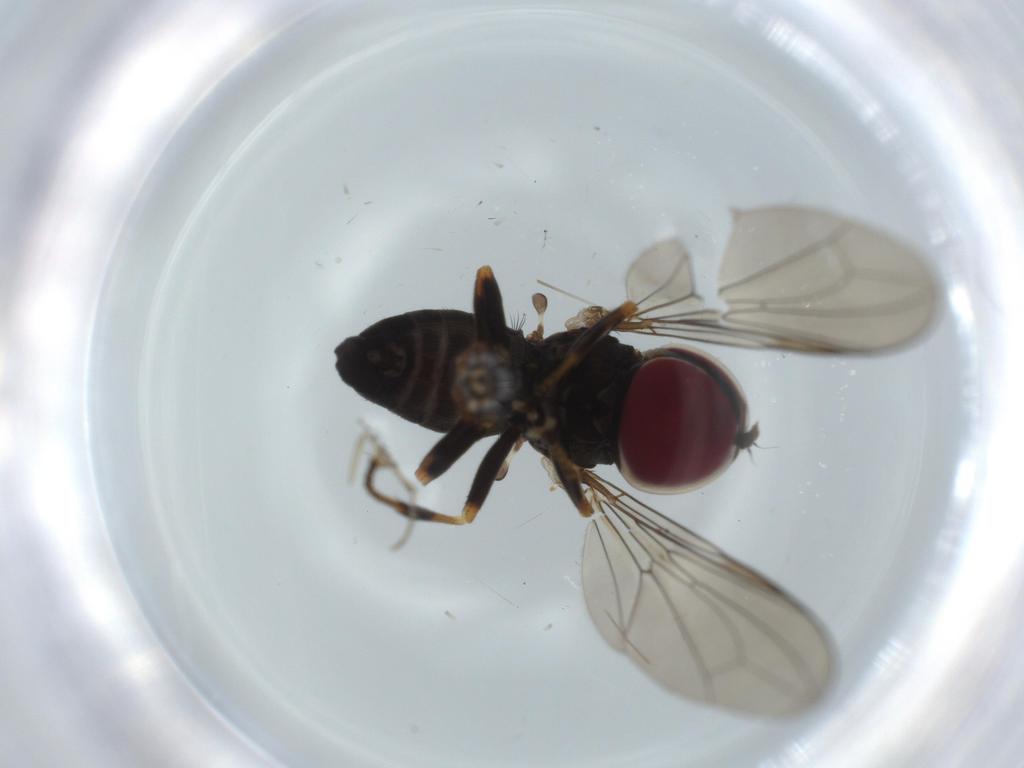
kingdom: Animalia
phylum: Arthropoda
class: Insecta
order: Diptera
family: Pipunculidae
